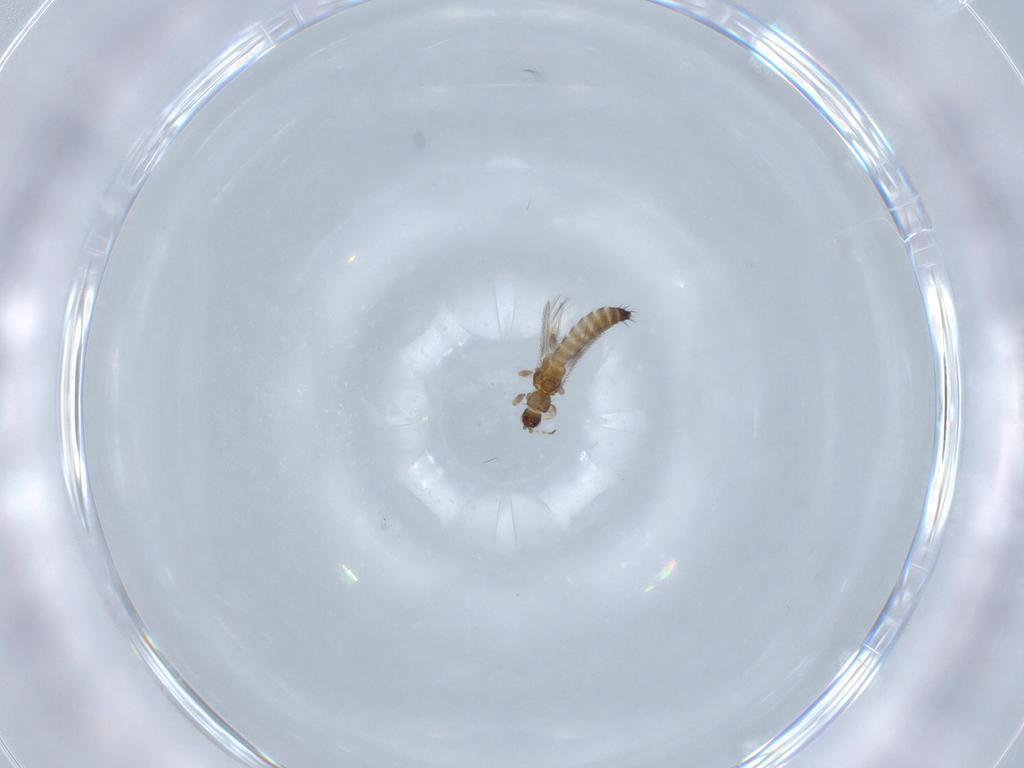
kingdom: Animalia
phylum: Arthropoda
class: Insecta
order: Thysanoptera
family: Thripidae
